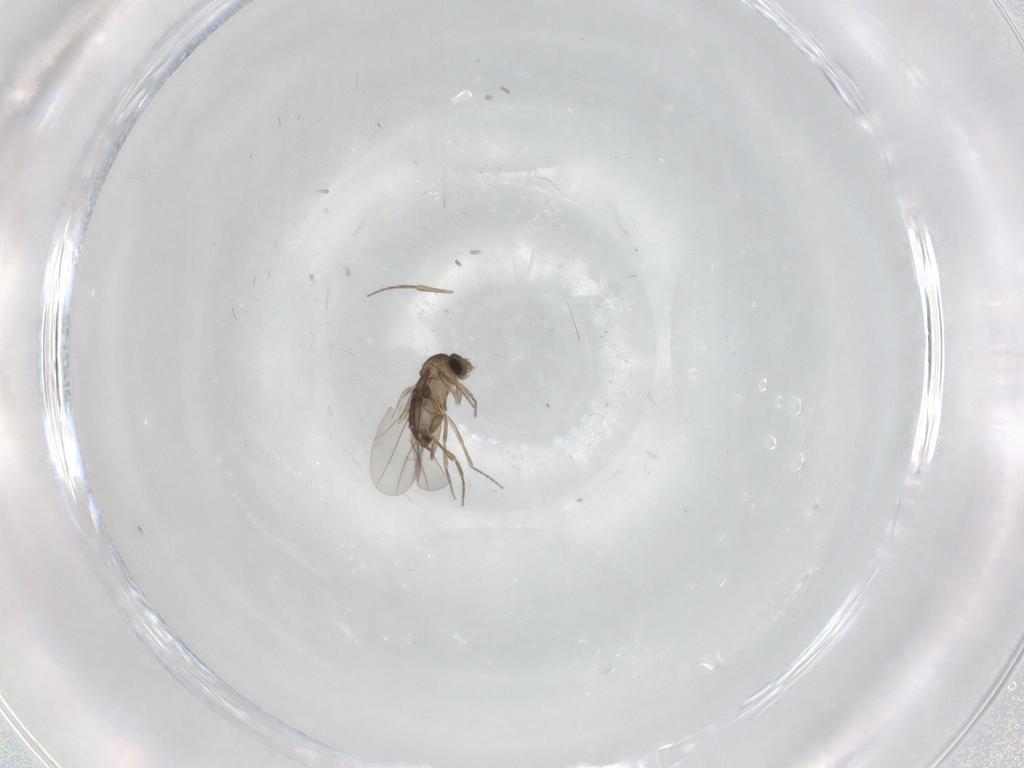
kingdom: Animalia
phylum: Arthropoda
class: Insecta
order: Diptera
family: Phoridae
